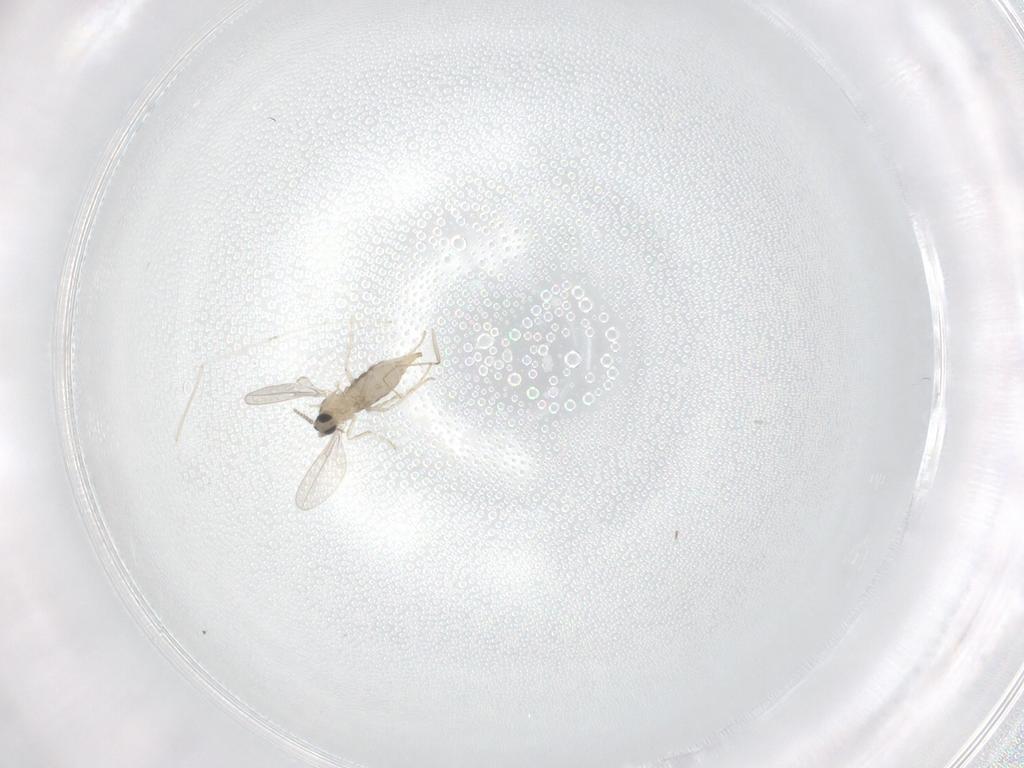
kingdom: Animalia
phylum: Arthropoda
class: Insecta
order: Diptera
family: Cecidomyiidae
